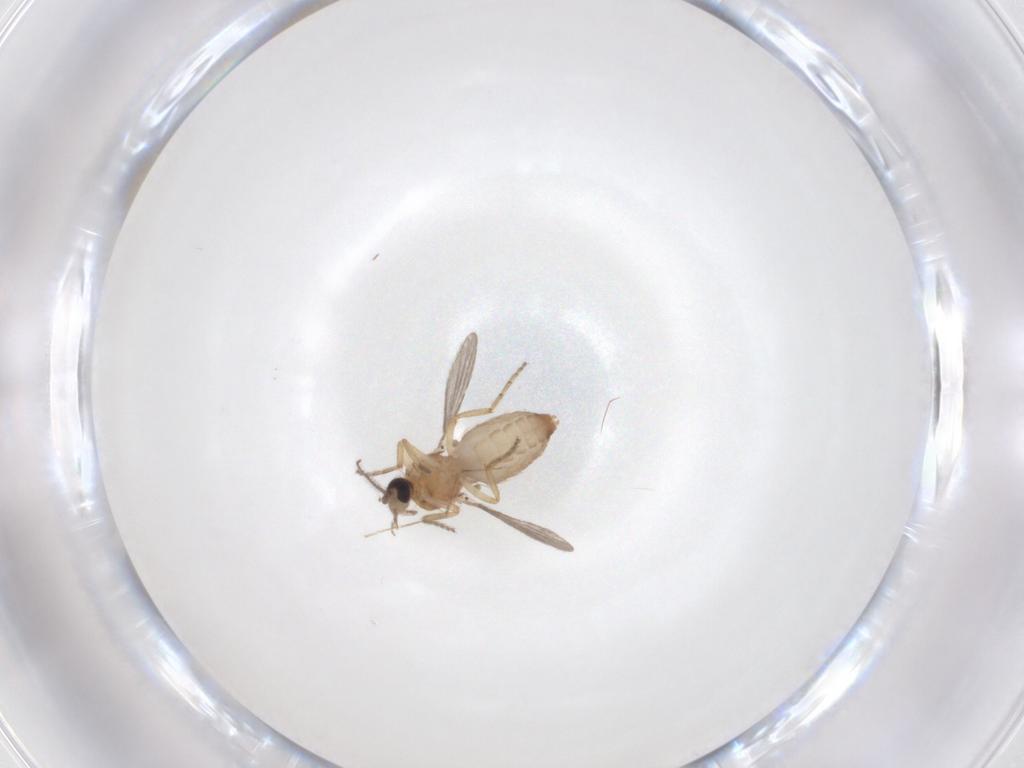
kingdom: Animalia
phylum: Arthropoda
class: Insecta
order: Diptera
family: Ceratopogonidae
